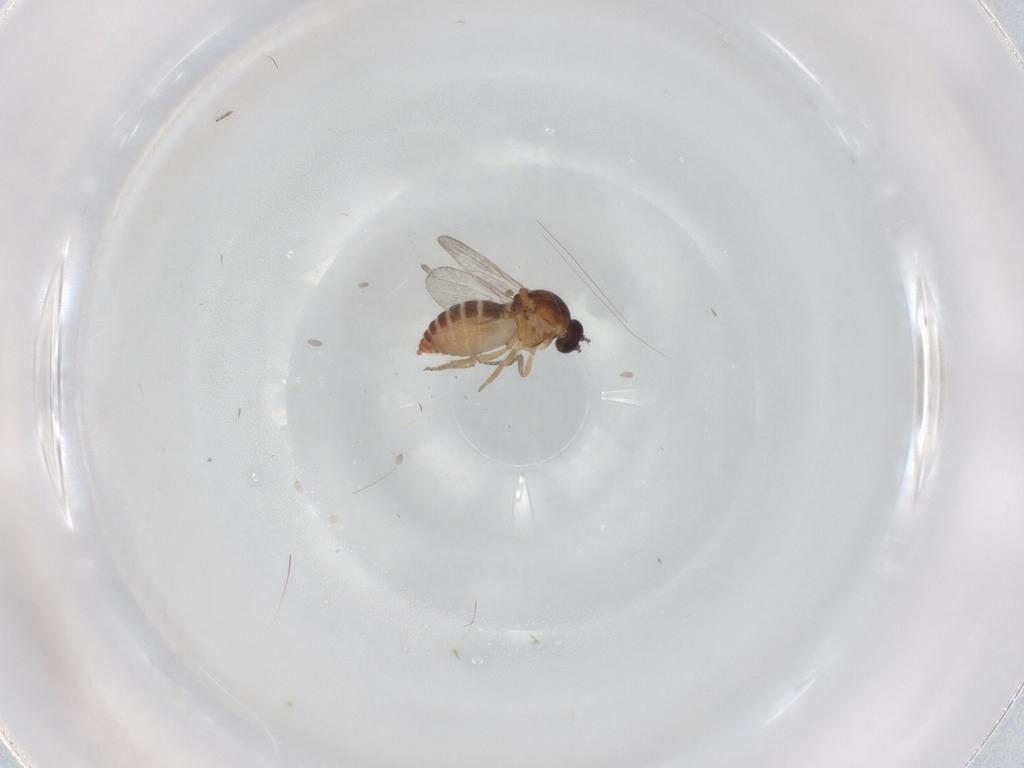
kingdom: Animalia
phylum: Arthropoda
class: Insecta
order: Diptera
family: Ceratopogonidae
